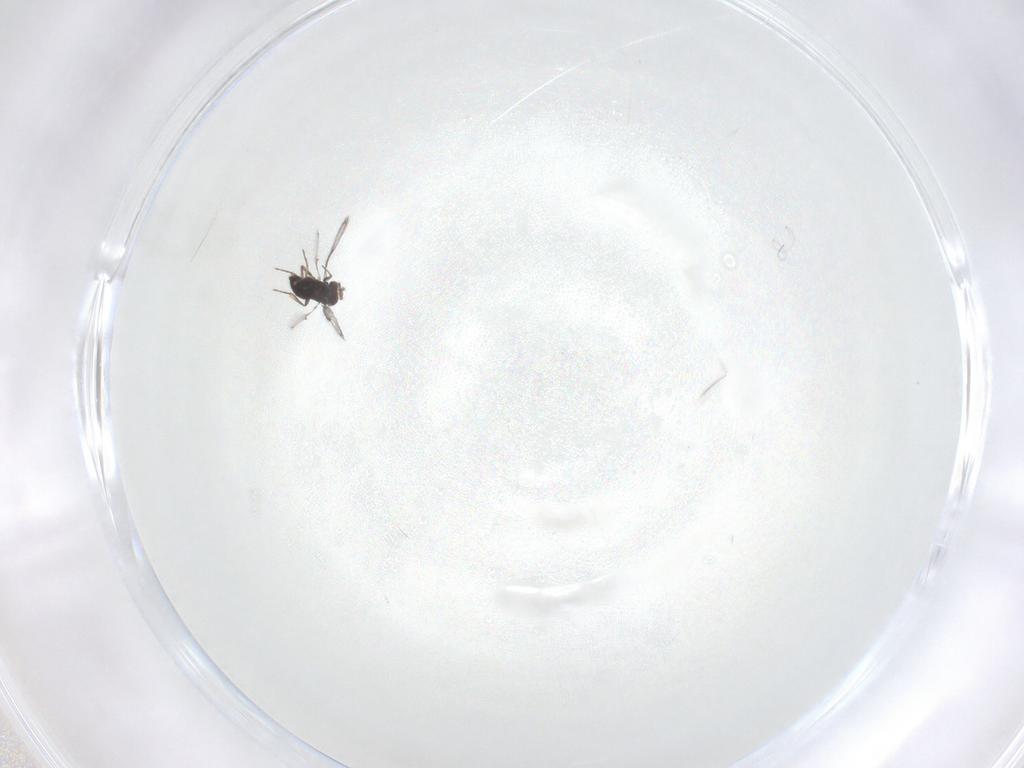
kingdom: Animalia
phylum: Arthropoda
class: Insecta
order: Hymenoptera
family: Trichogrammatidae
